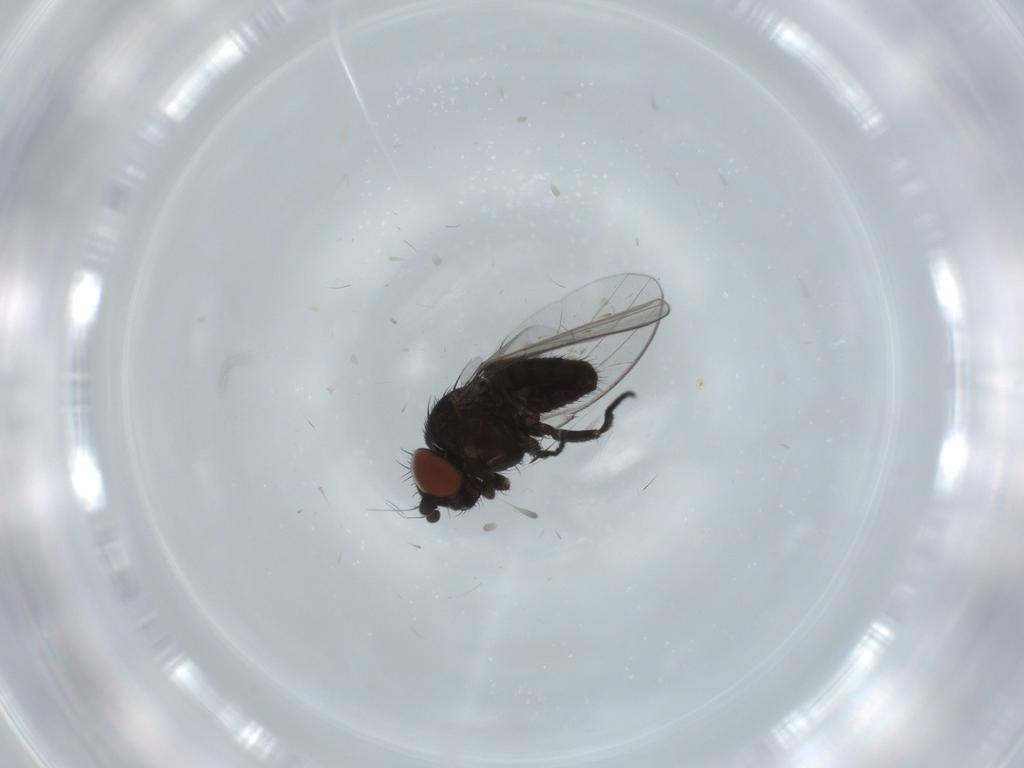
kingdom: Animalia
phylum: Arthropoda
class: Insecta
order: Diptera
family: Milichiidae
